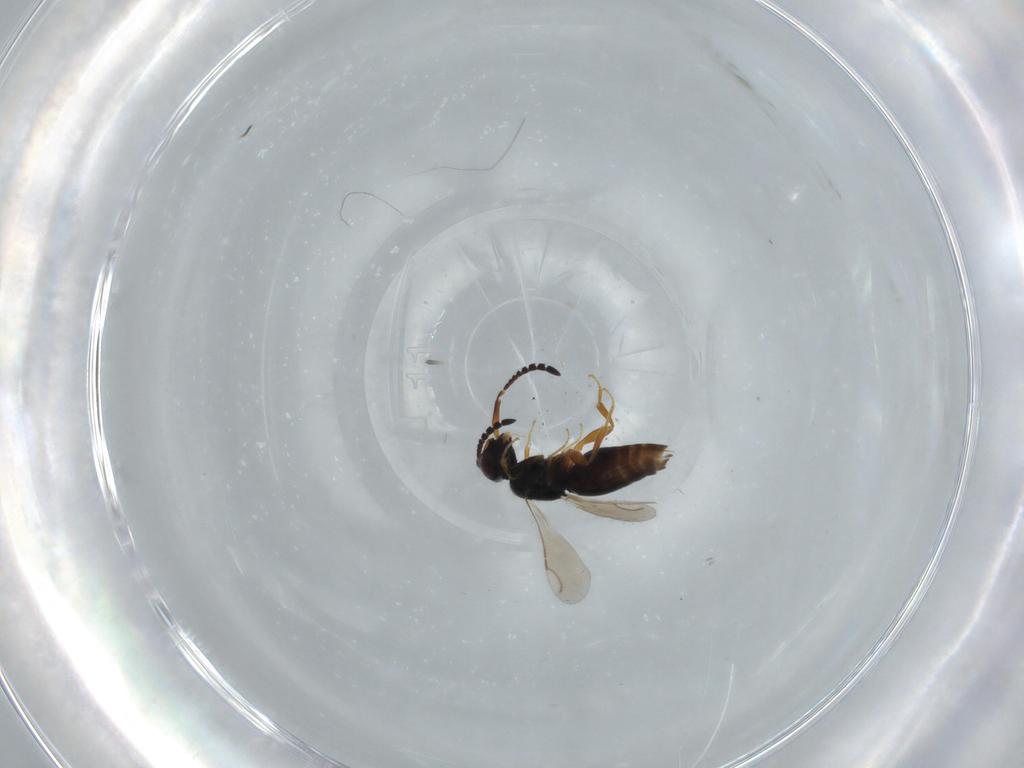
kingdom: Animalia
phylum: Arthropoda
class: Insecta
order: Hymenoptera
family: Ceraphronidae
